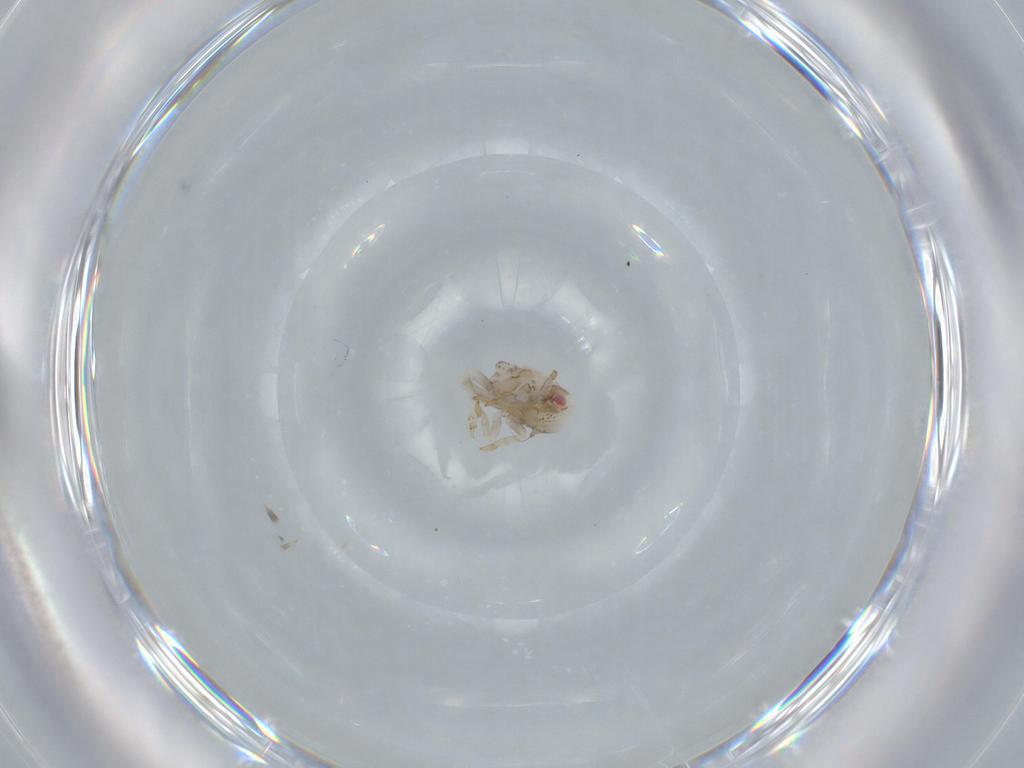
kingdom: Animalia
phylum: Arthropoda
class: Insecta
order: Hemiptera
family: Acanaloniidae
